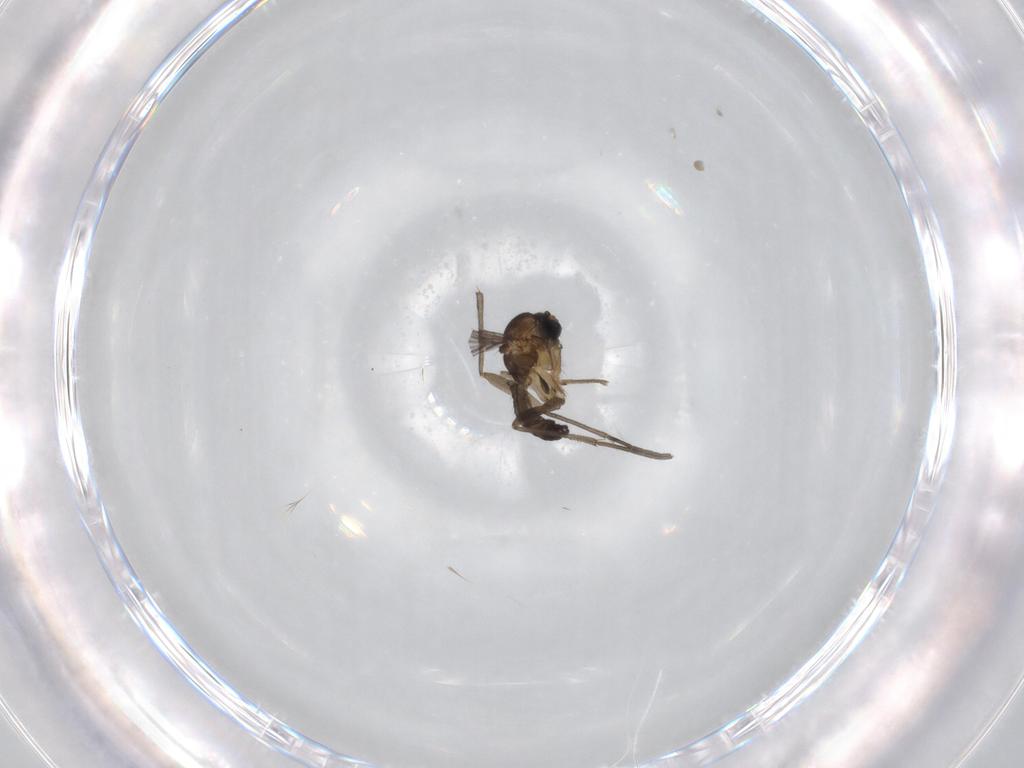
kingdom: Animalia
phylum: Arthropoda
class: Insecta
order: Diptera
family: Sciaridae
